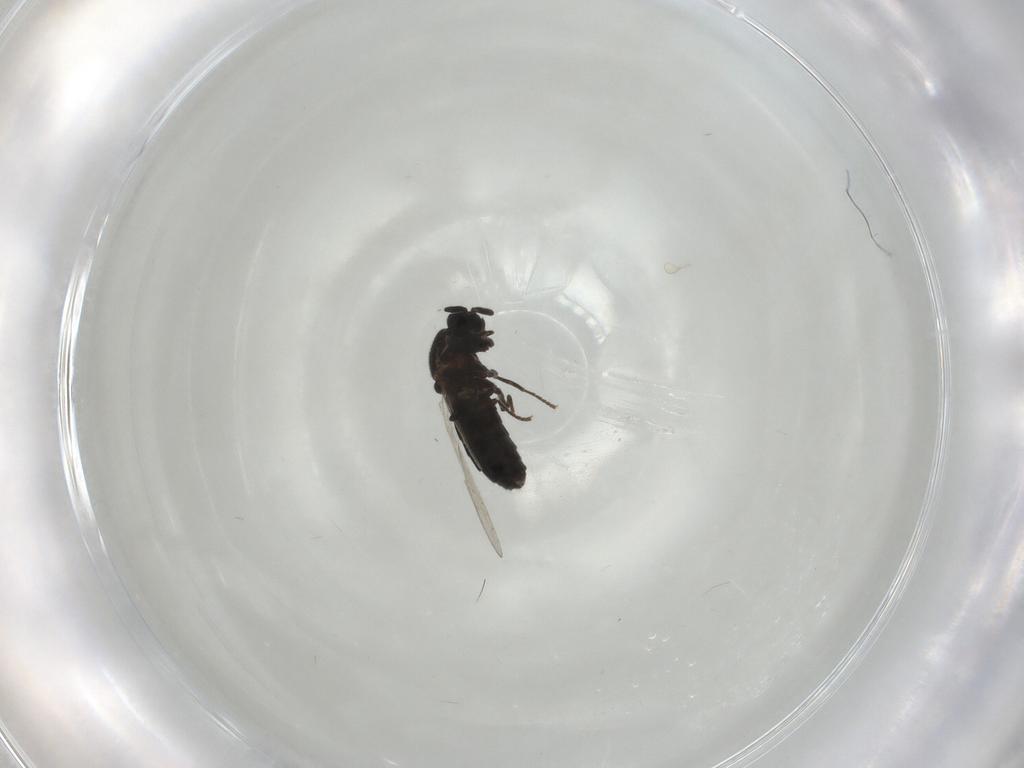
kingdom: Animalia
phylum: Arthropoda
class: Insecta
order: Diptera
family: Scatopsidae
